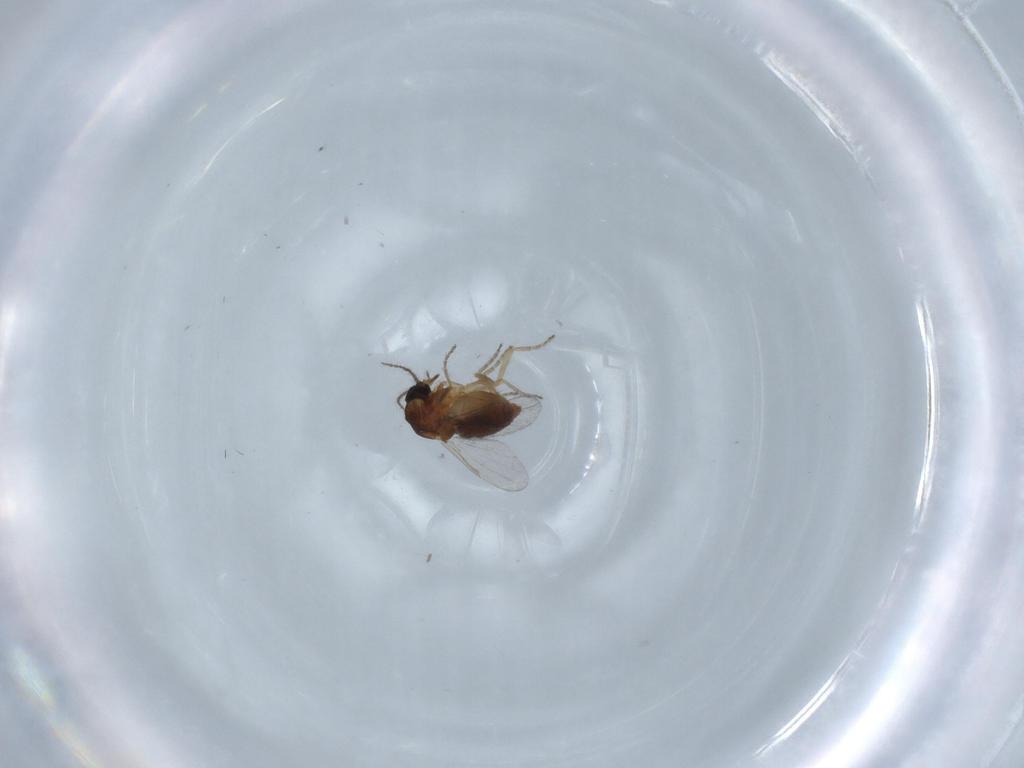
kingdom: Animalia
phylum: Arthropoda
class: Insecta
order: Diptera
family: Ceratopogonidae
